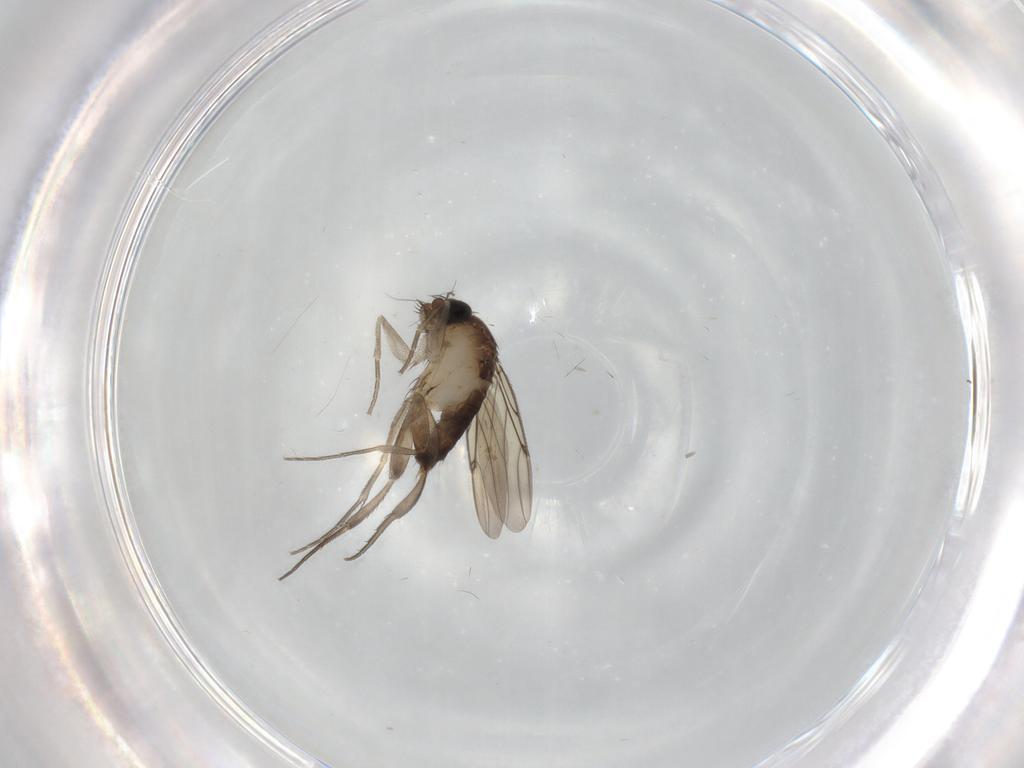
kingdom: Animalia
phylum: Arthropoda
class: Insecta
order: Diptera
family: Phoridae
